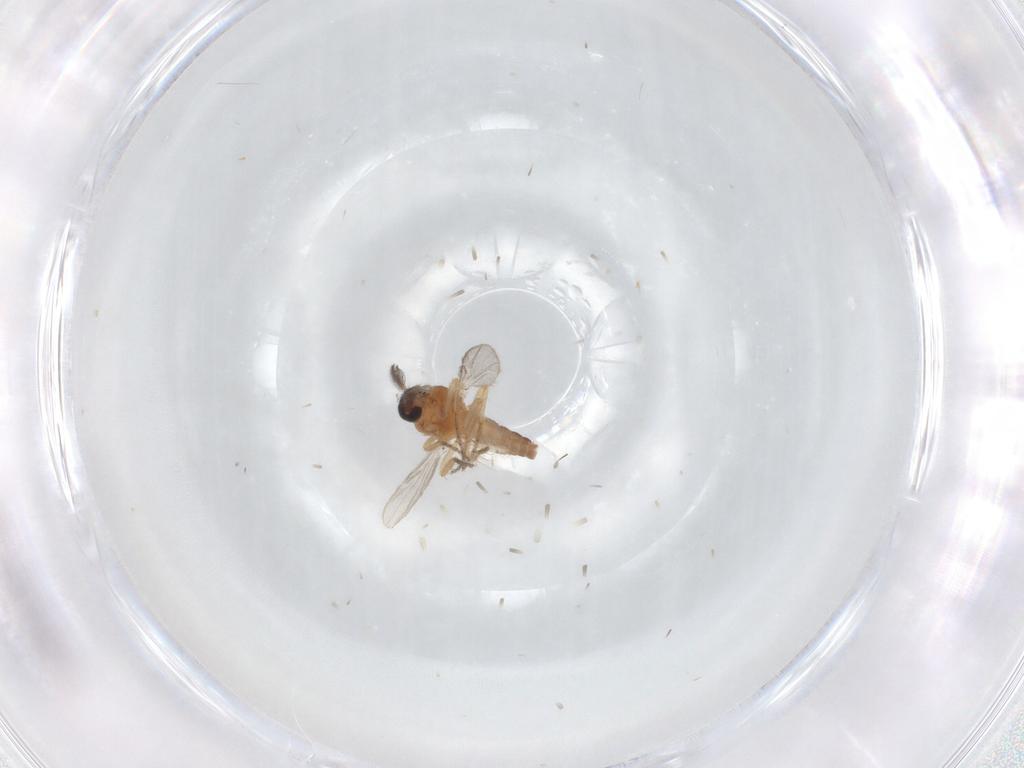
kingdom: Animalia
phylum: Arthropoda
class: Insecta
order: Diptera
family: Ceratopogonidae
